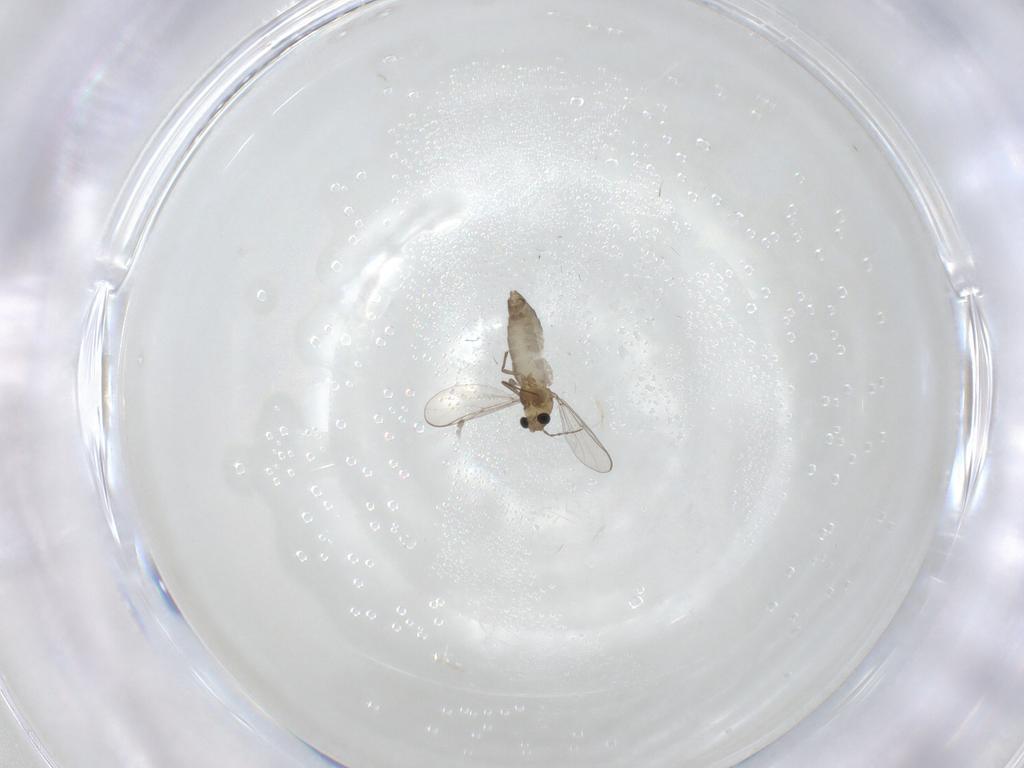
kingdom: Animalia
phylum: Arthropoda
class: Insecta
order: Diptera
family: Chironomidae
